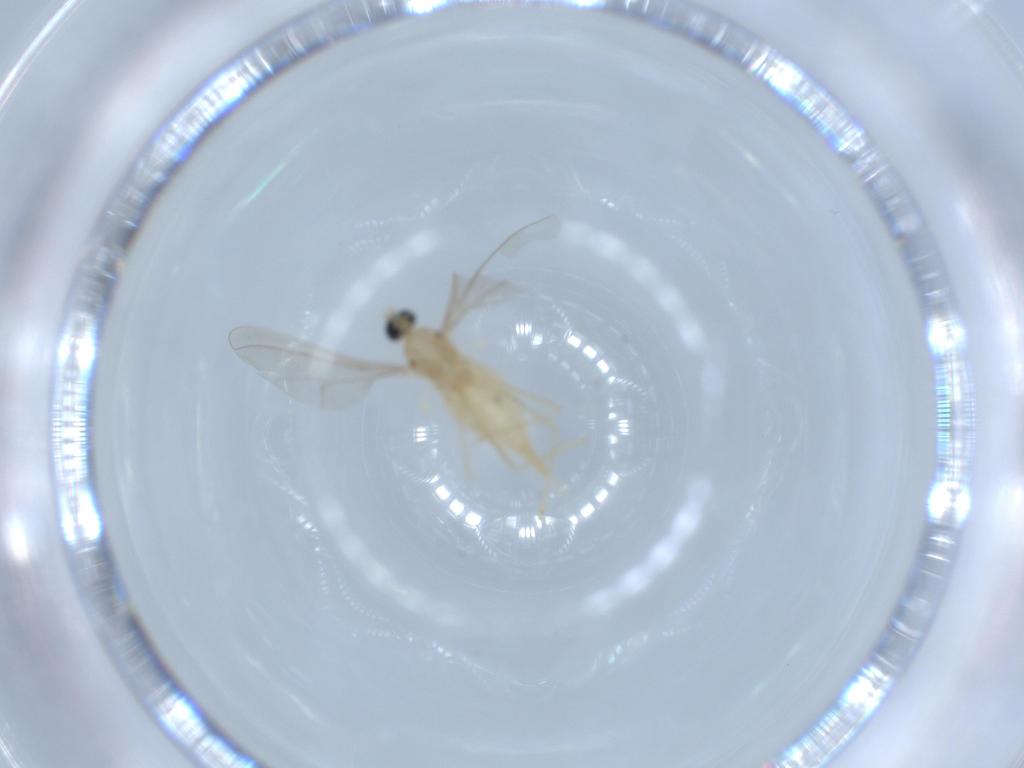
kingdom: Animalia
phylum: Arthropoda
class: Insecta
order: Diptera
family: Cecidomyiidae
